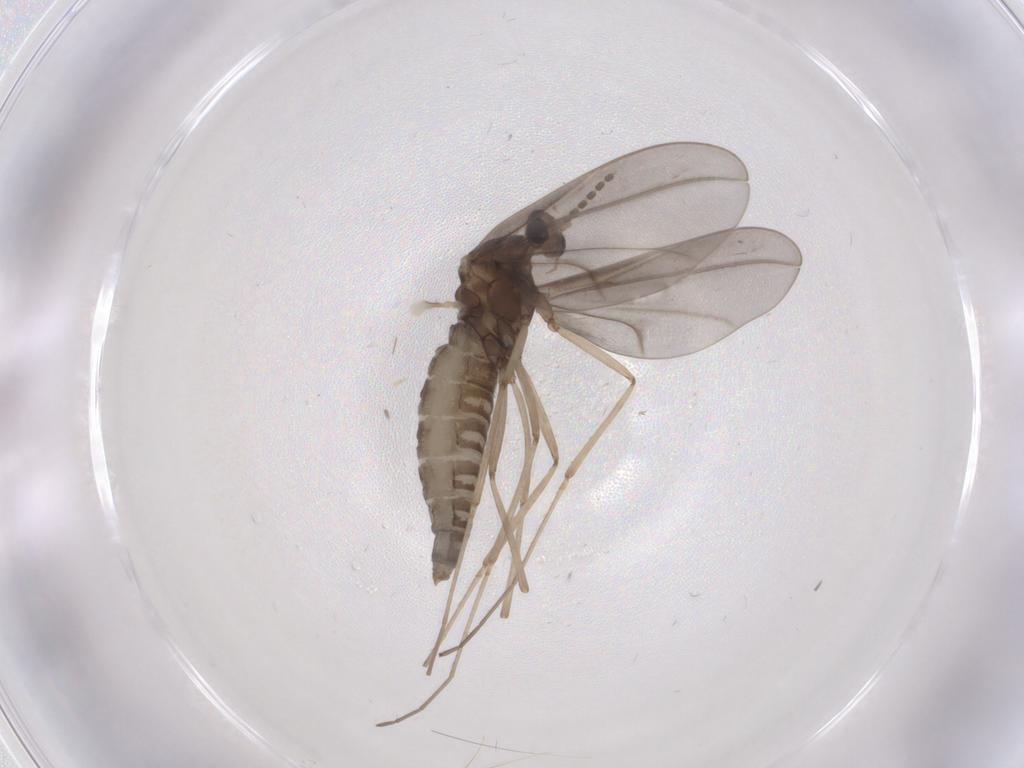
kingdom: Animalia
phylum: Arthropoda
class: Insecta
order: Diptera
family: Cecidomyiidae
